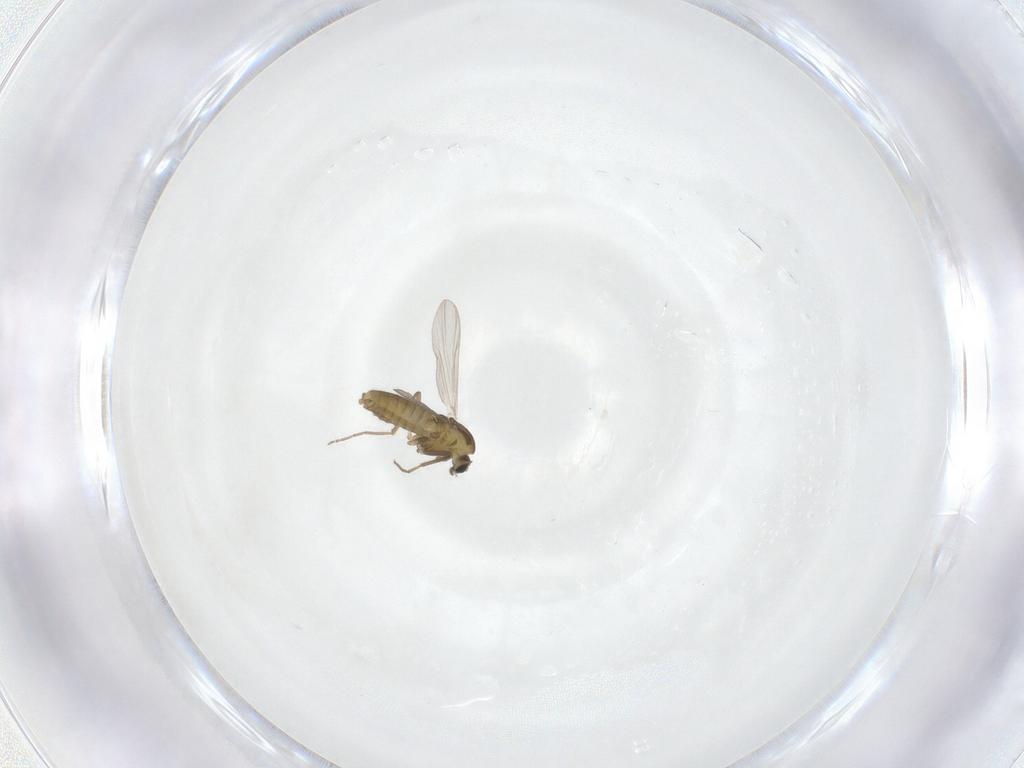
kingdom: Animalia
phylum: Arthropoda
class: Insecta
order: Diptera
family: Chironomidae
